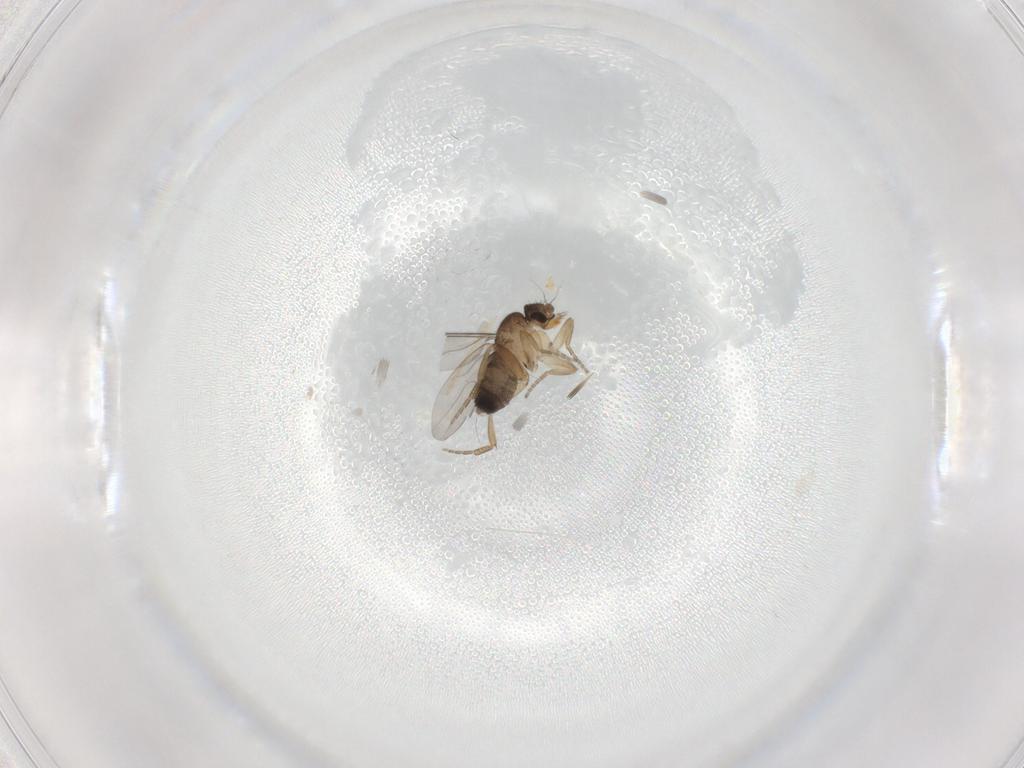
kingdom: Animalia
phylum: Arthropoda
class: Insecta
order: Diptera
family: Phoridae
